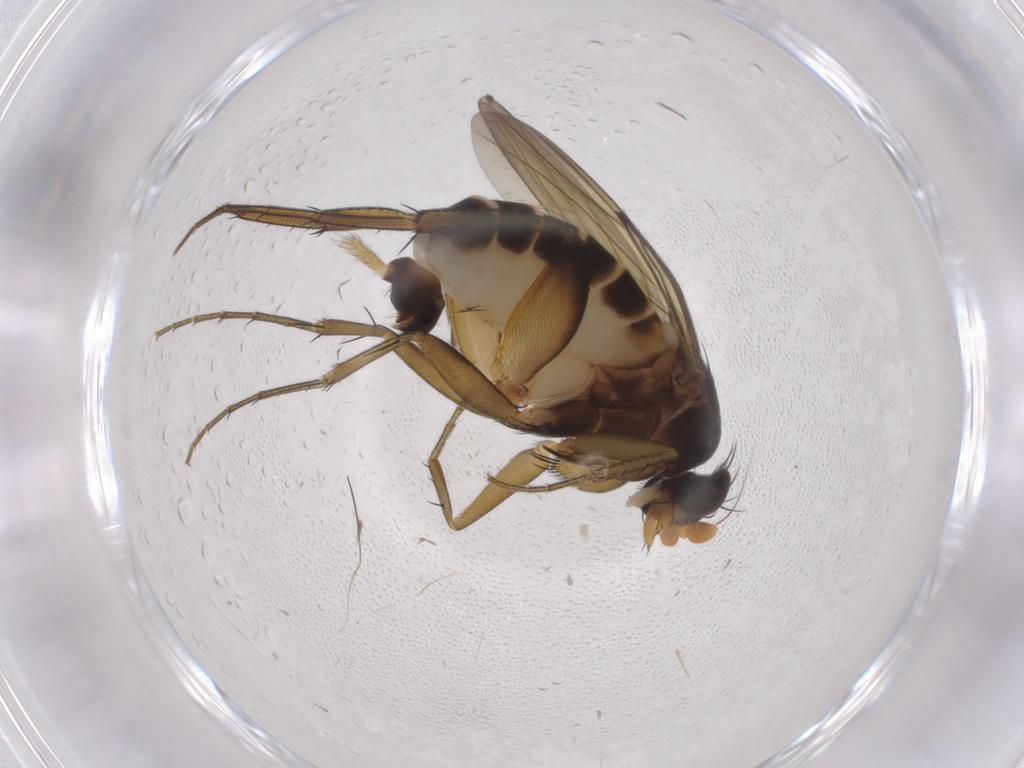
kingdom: Animalia
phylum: Arthropoda
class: Insecta
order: Diptera
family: Phoridae
